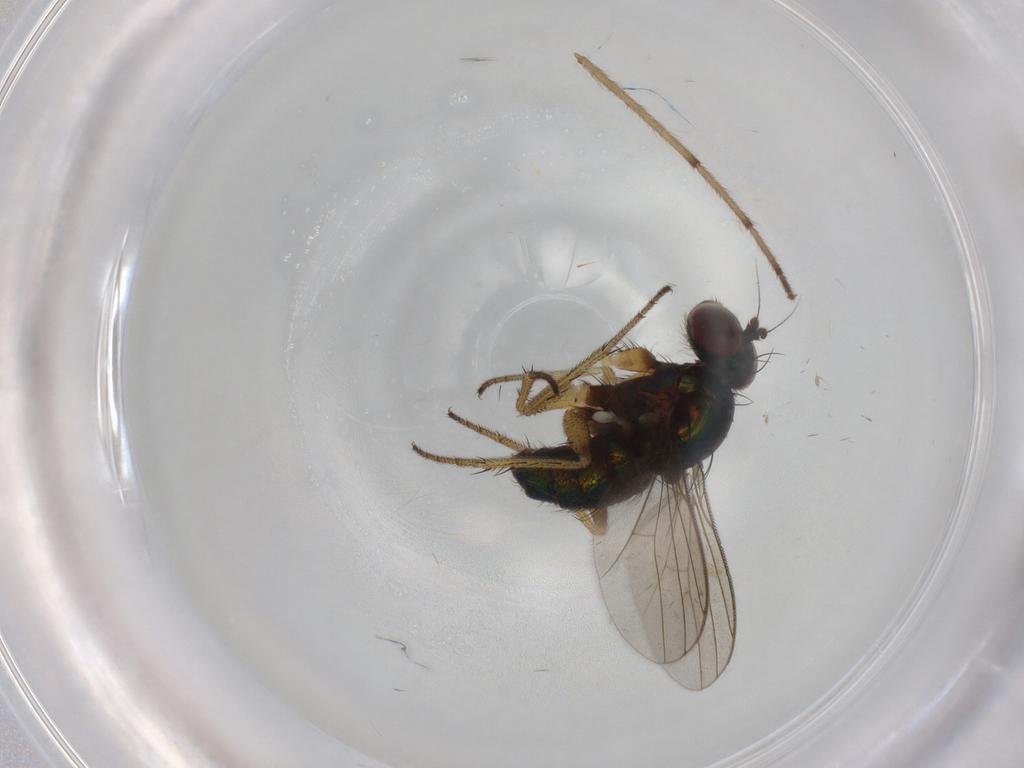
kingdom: Animalia
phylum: Arthropoda
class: Insecta
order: Diptera
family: Dolichopodidae
